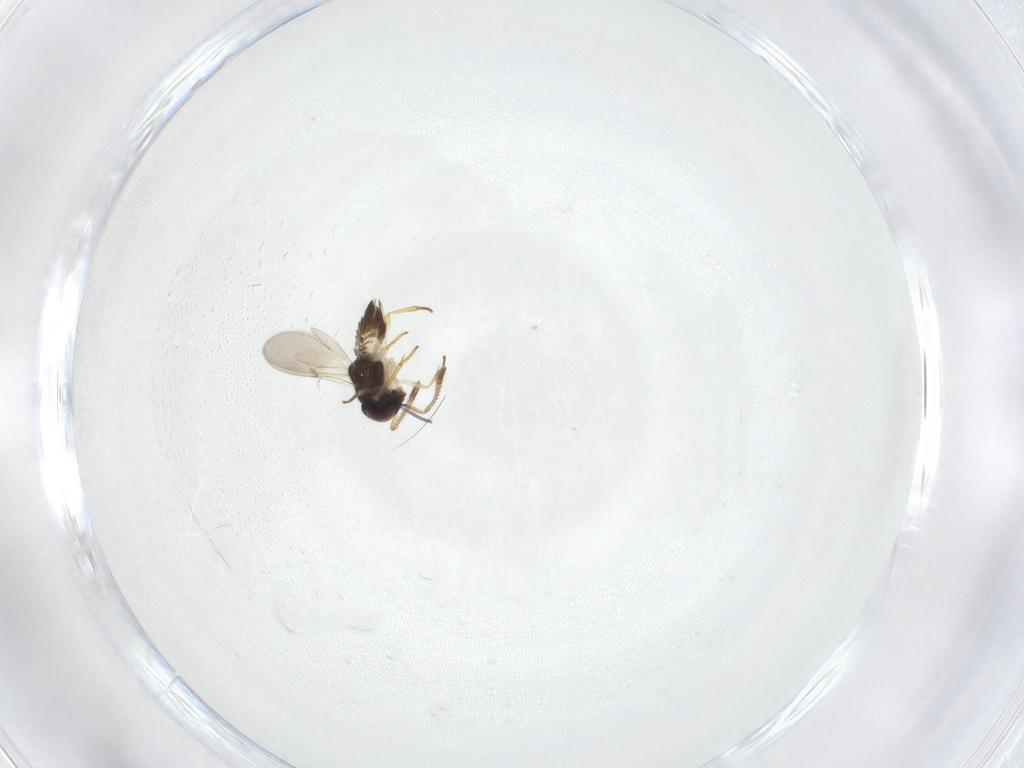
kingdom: Animalia
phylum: Arthropoda
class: Insecta
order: Hymenoptera
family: Encyrtidae
